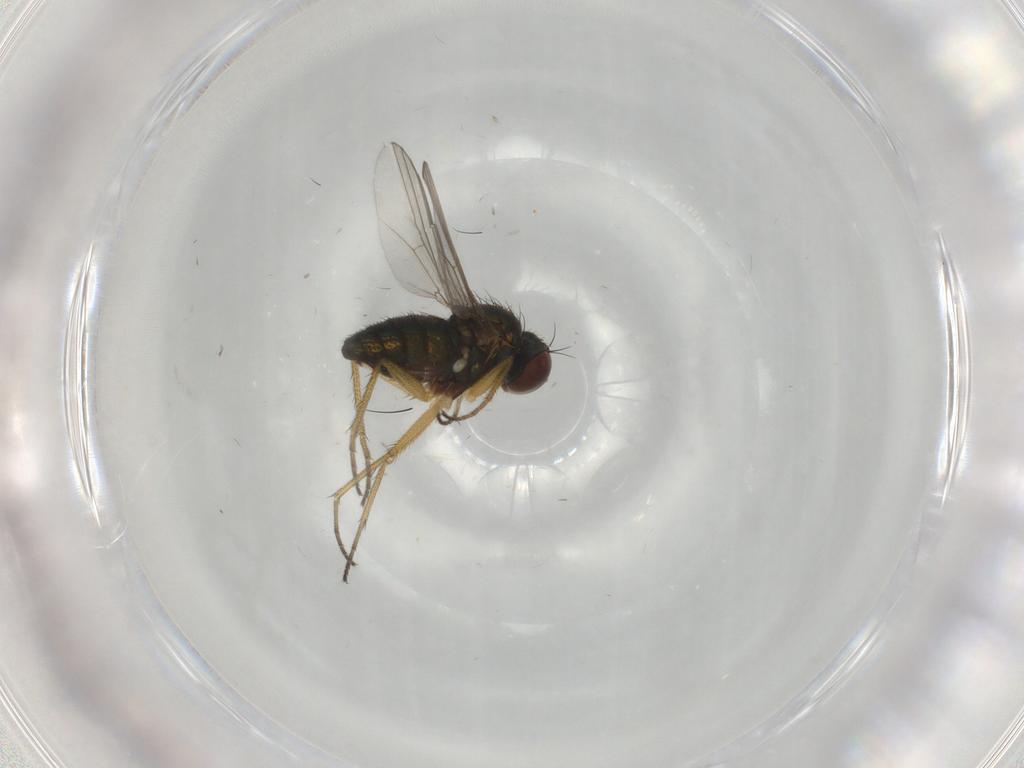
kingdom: Animalia
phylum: Arthropoda
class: Insecta
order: Diptera
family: Dolichopodidae
